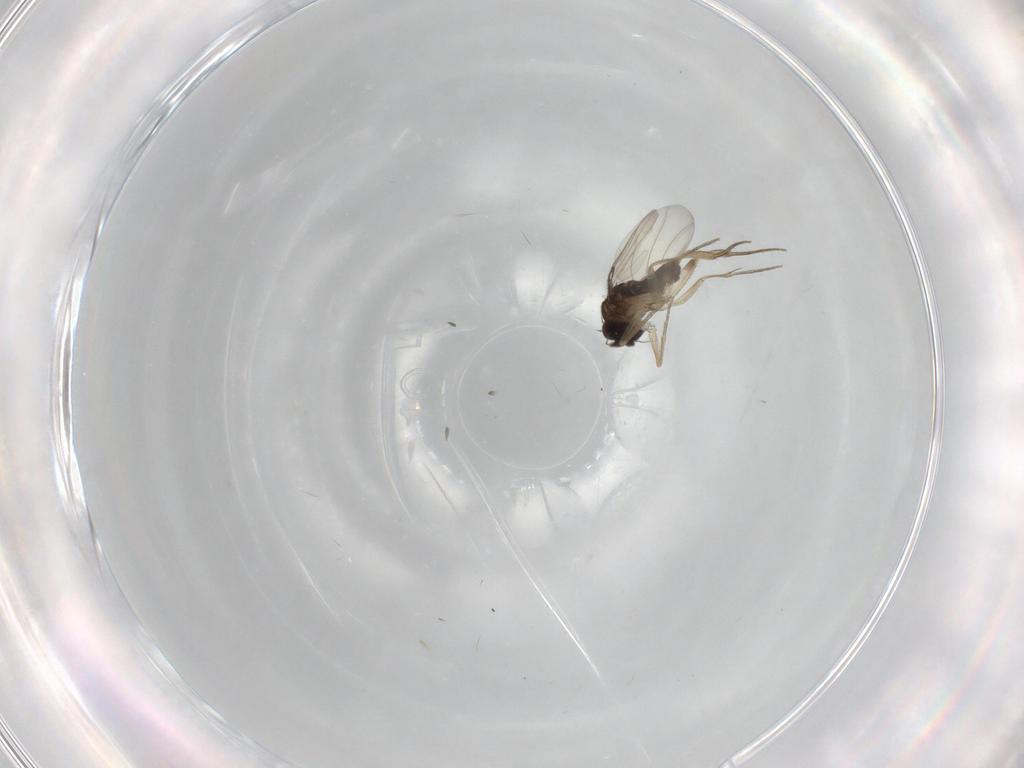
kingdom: Animalia
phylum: Arthropoda
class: Insecta
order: Diptera
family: Phoridae
